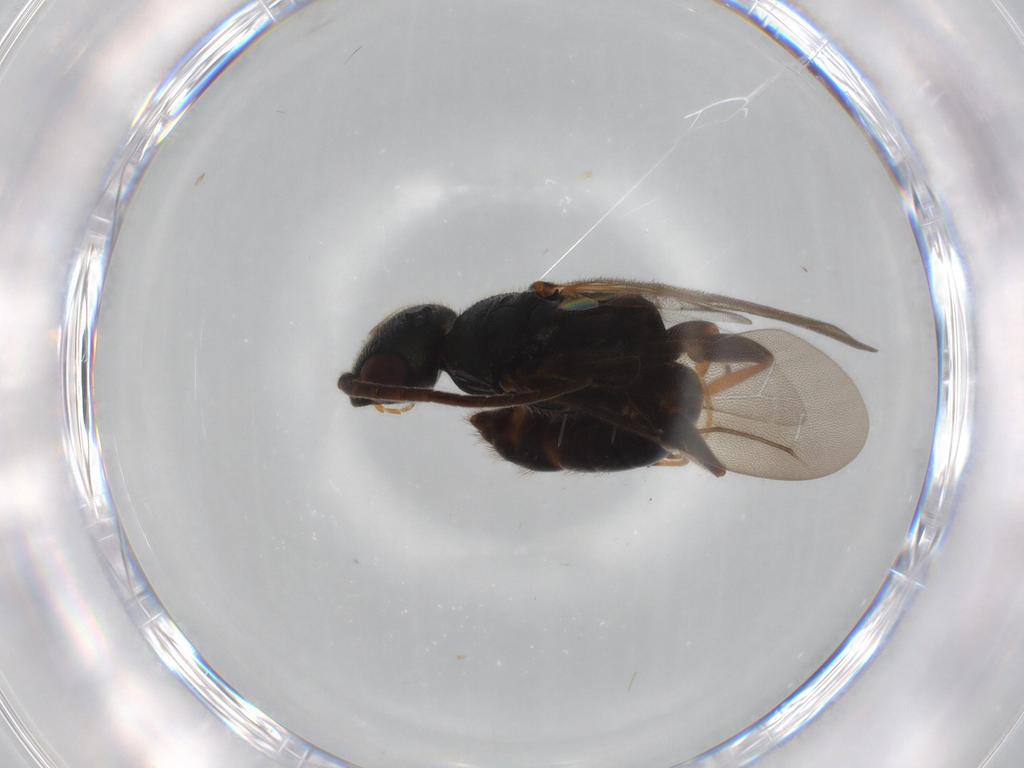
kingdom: Animalia
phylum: Arthropoda
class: Insecta
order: Hymenoptera
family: Bethylidae
